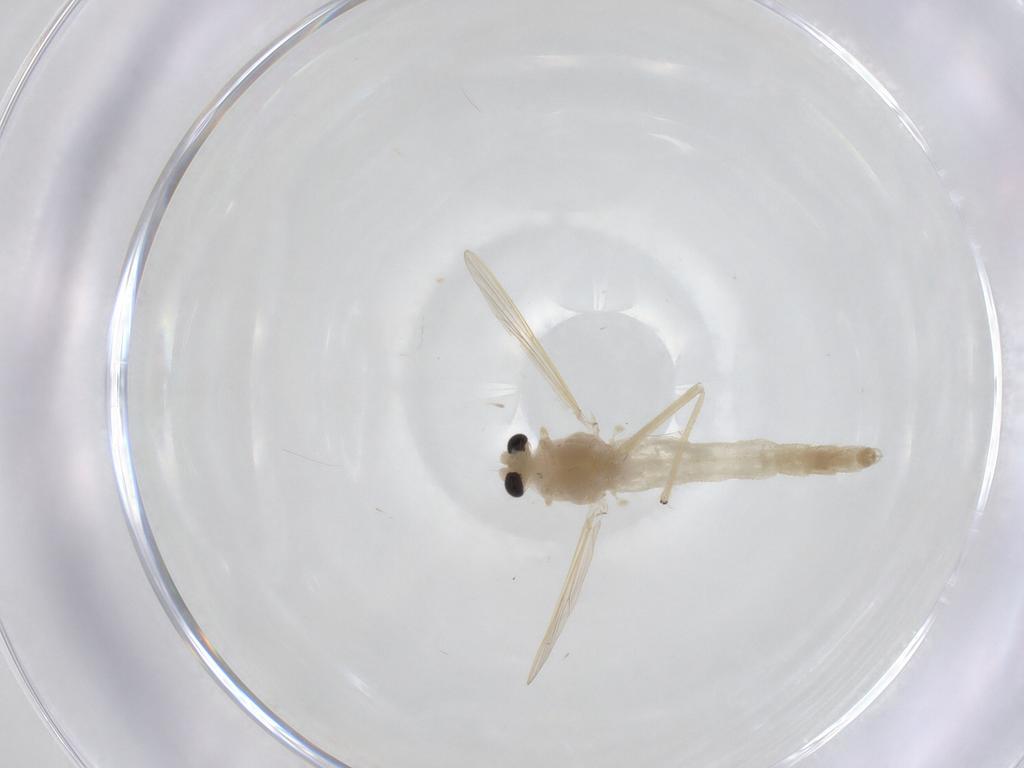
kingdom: Animalia
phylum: Arthropoda
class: Insecta
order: Diptera
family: Chironomidae
